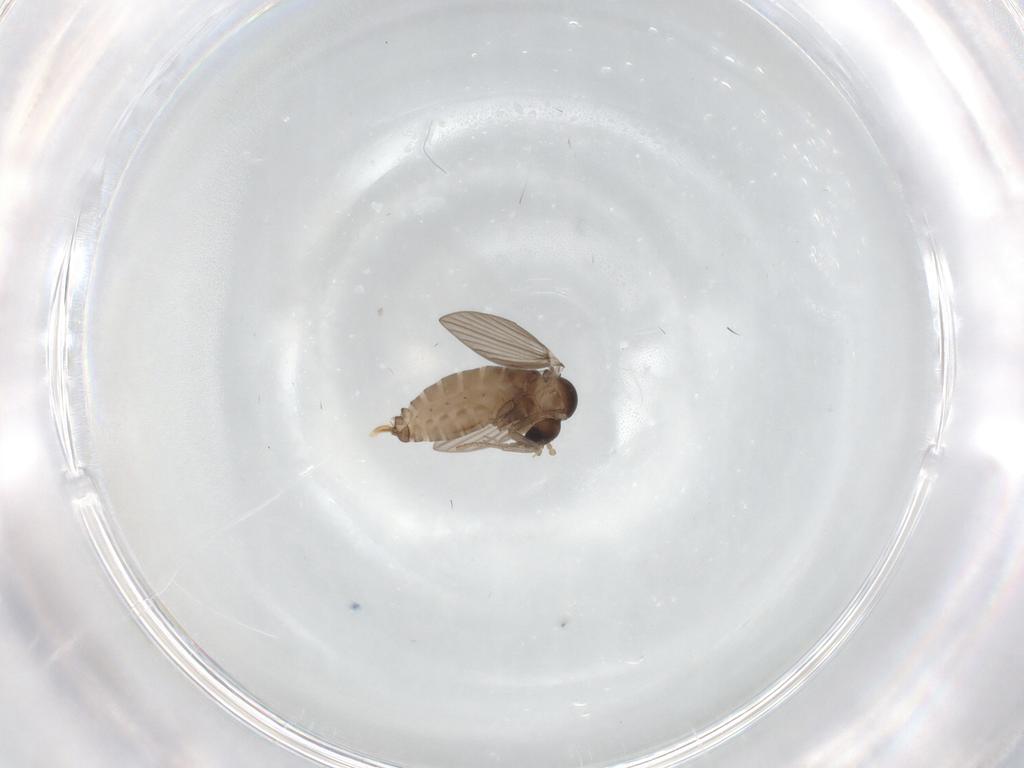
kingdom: Animalia
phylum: Arthropoda
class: Insecta
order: Diptera
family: Psychodidae
